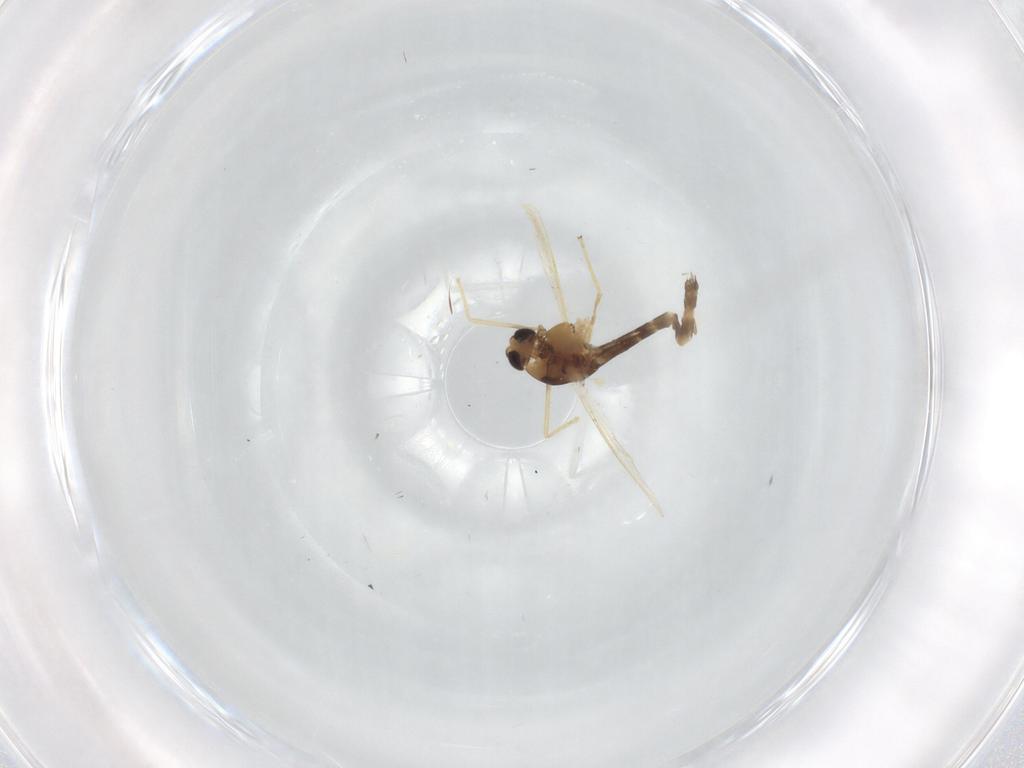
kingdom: Animalia
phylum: Arthropoda
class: Insecta
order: Diptera
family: Chironomidae
